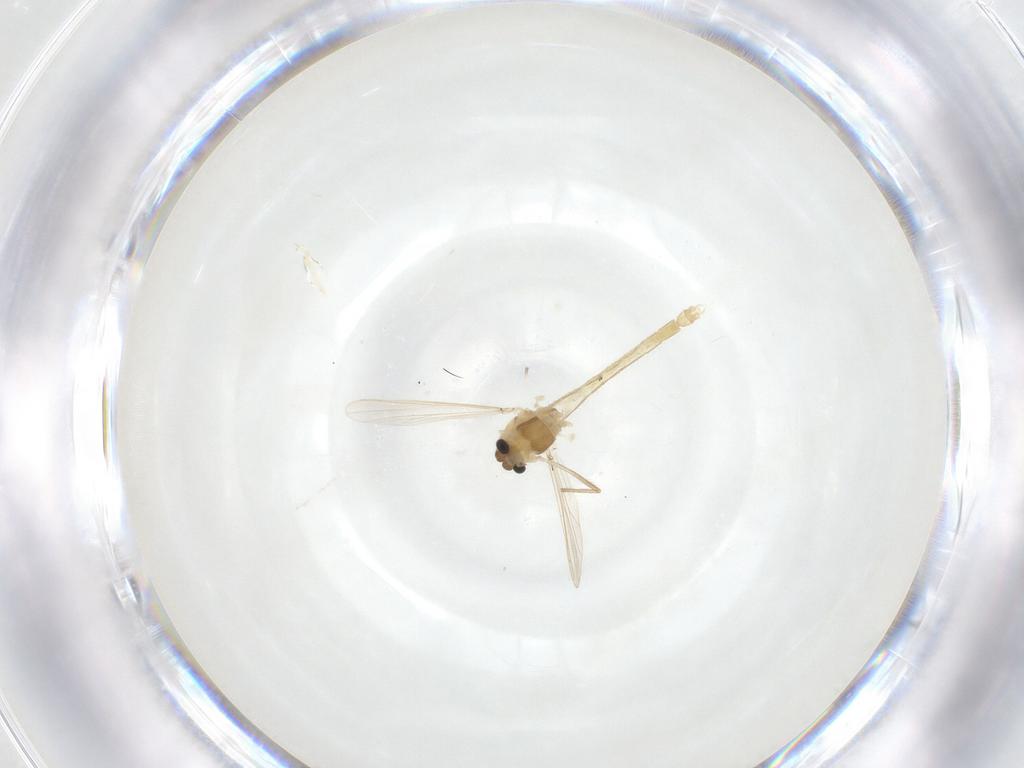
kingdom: Animalia
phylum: Arthropoda
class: Insecta
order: Diptera
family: Chironomidae
